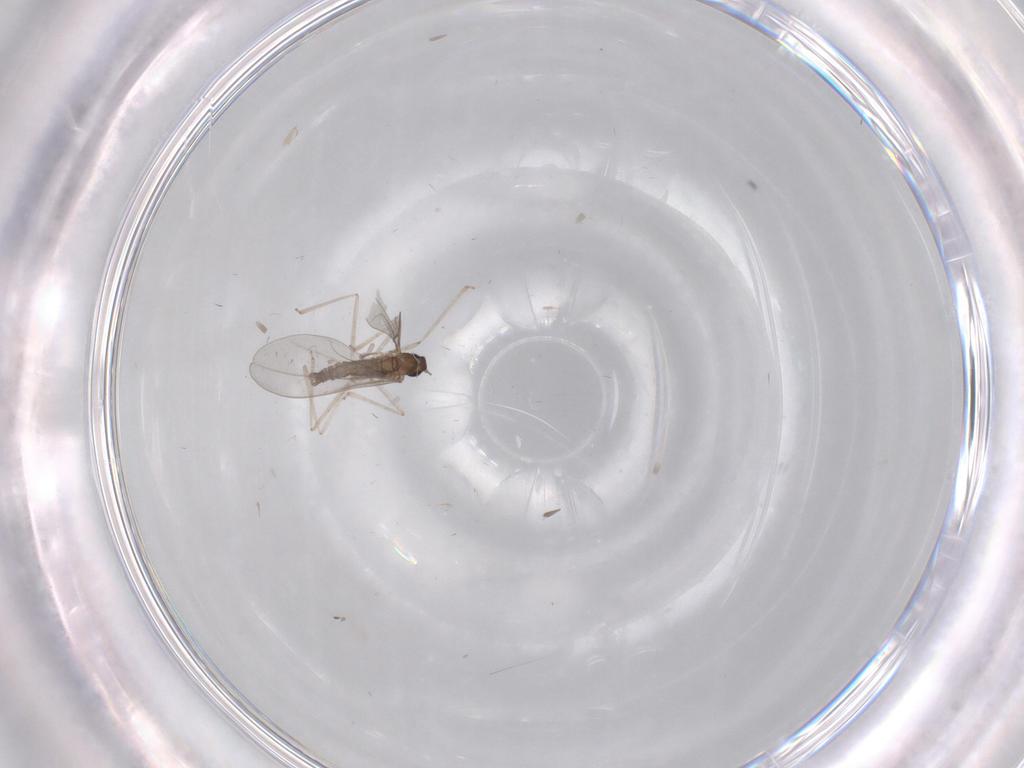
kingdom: Animalia
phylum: Arthropoda
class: Insecta
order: Diptera
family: Cecidomyiidae
